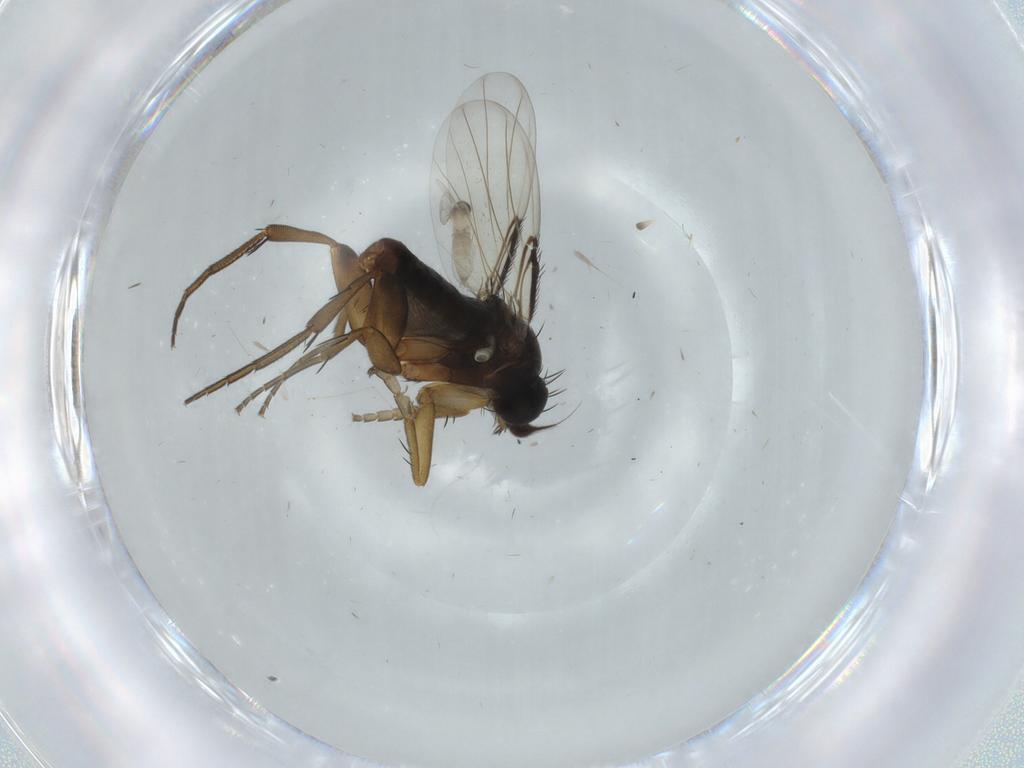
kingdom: Animalia
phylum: Arthropoda
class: Insecta
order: Diptera
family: Phoridae
